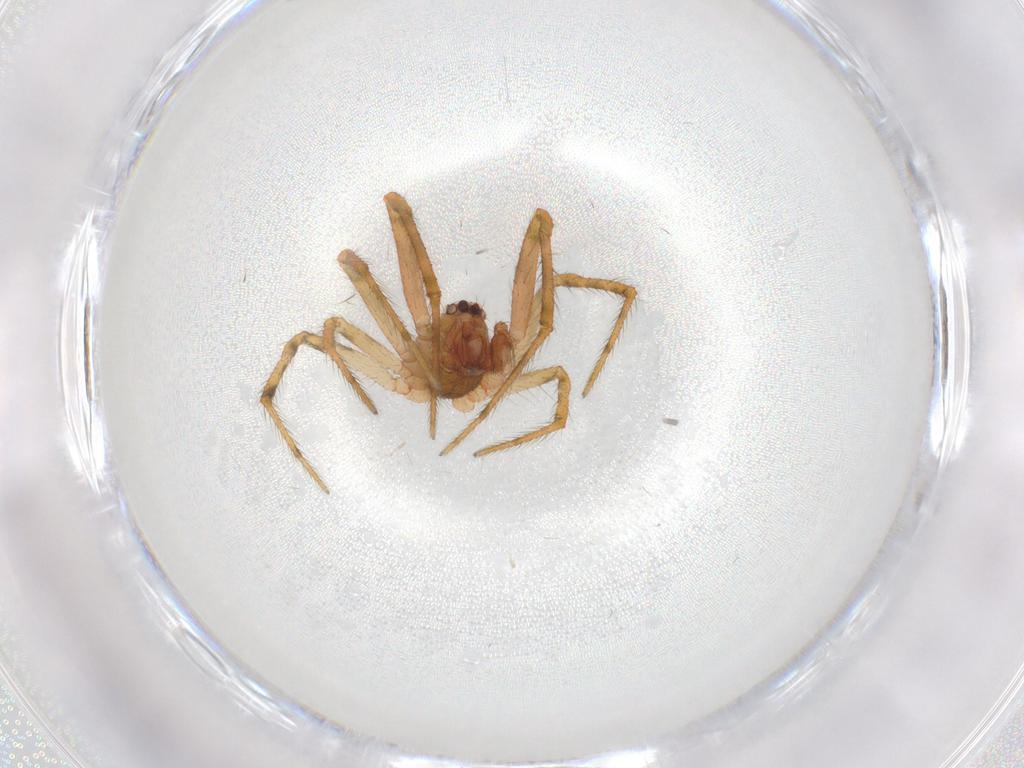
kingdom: Animalia
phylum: Arthropoda
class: Arachnida
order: Araneae
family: Theridiidae
